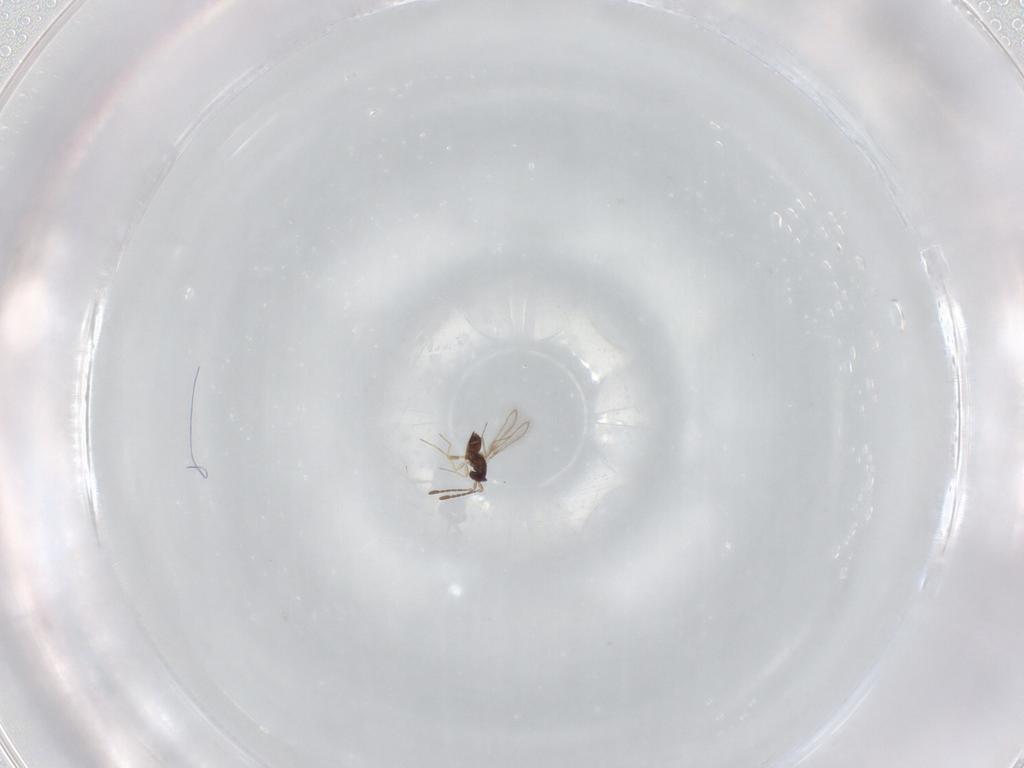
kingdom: Animalia
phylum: Arthropoda
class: Insecta
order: Hymenoptera
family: Mymaridae
